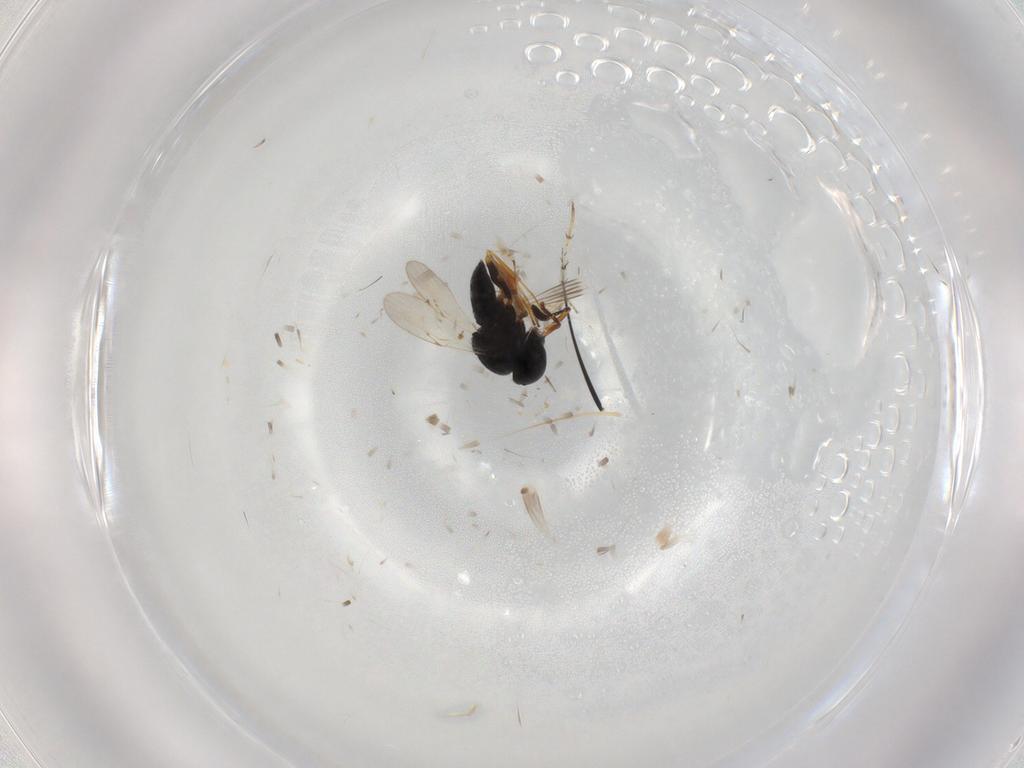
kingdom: Animalia
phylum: Arthropoda
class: Insecta
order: Coleoptera
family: Curculionidae
